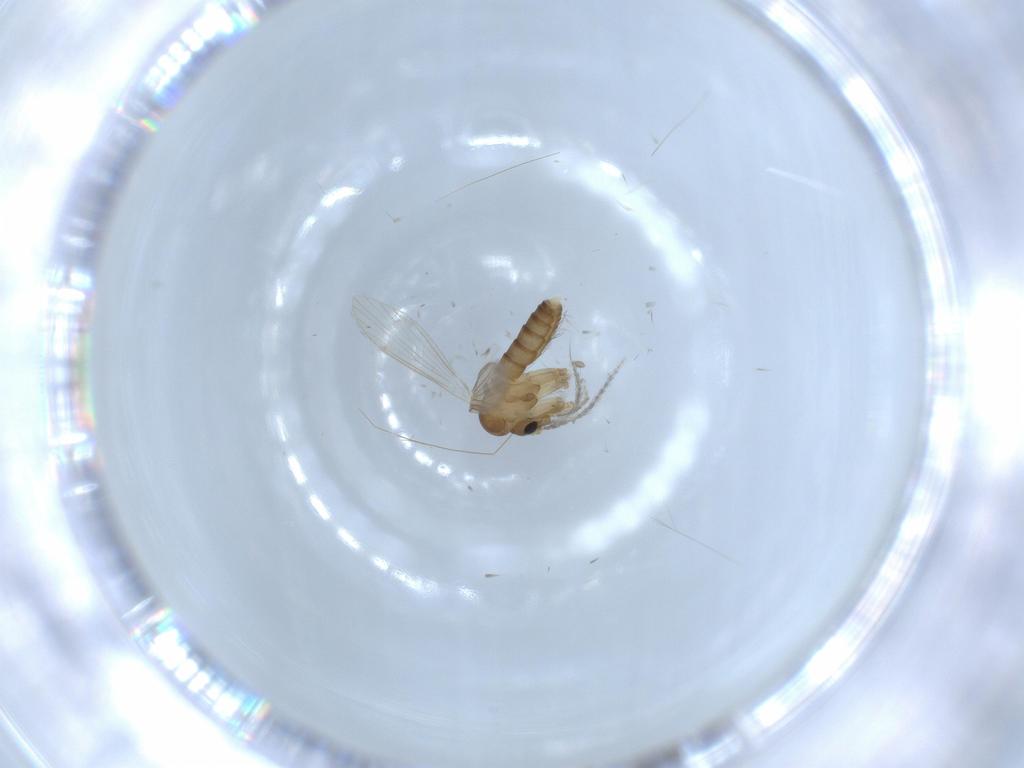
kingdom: Animalia
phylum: Arthropoda
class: Insecta
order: Diptera
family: Psychodidae
